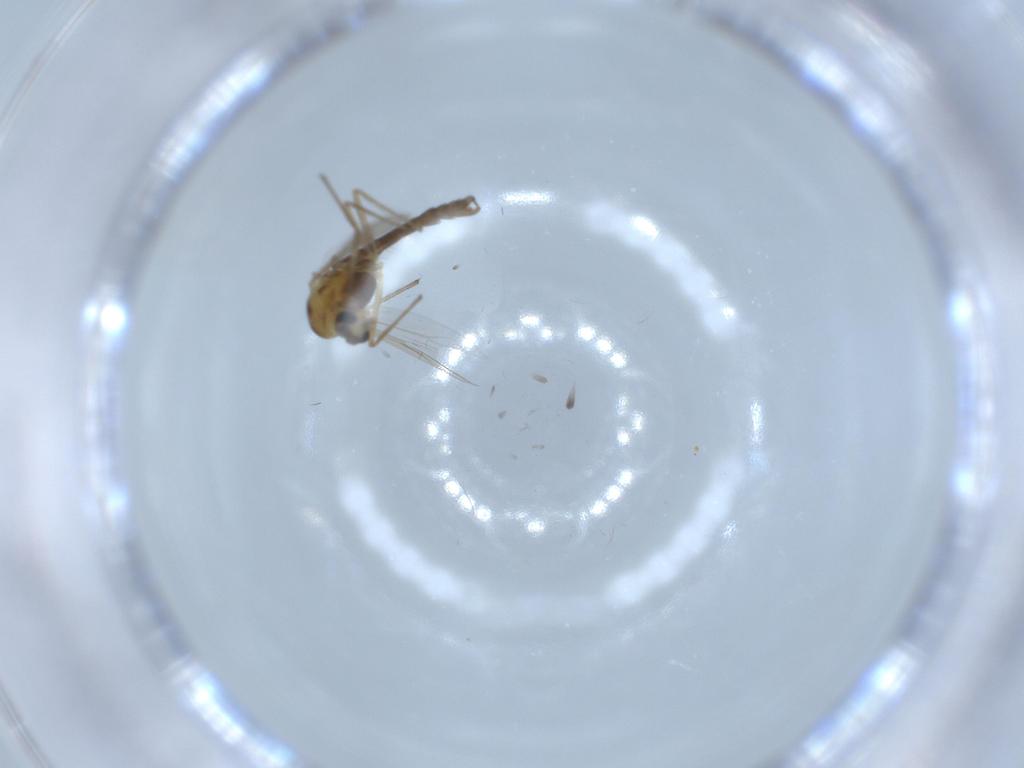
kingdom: Animalia
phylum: Arthropoda
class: Insecta
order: Diptera
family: Chironomidae
